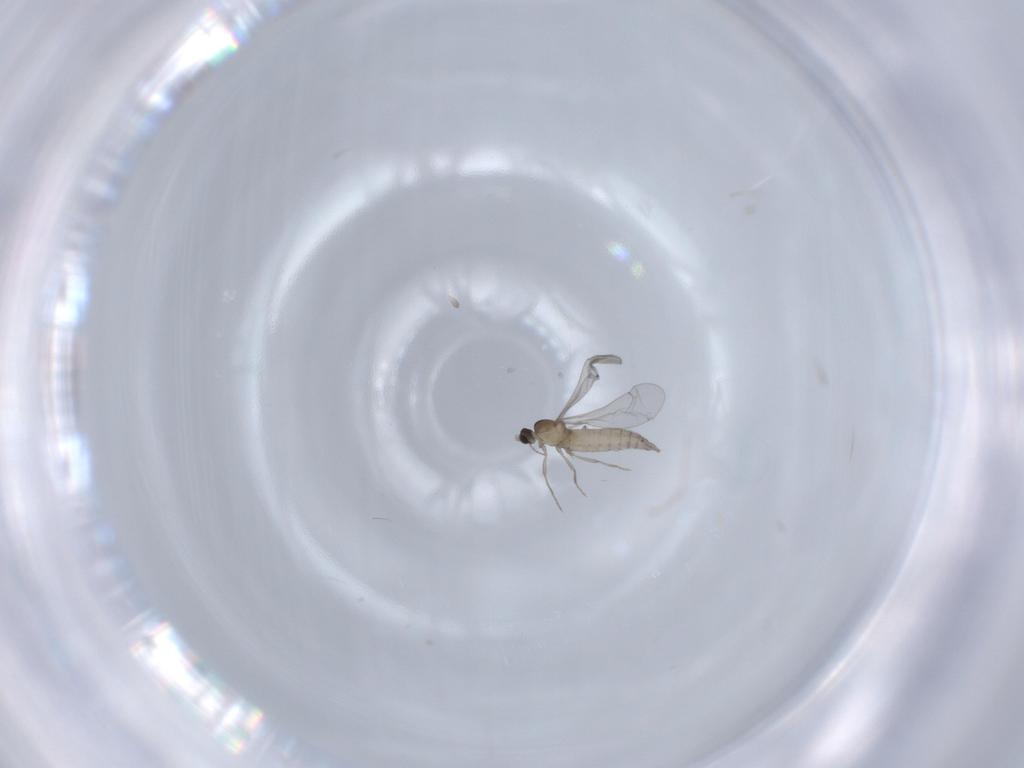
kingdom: Animalia
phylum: Arthropoda
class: Insecta
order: Diptera
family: Cecidomyiidae
